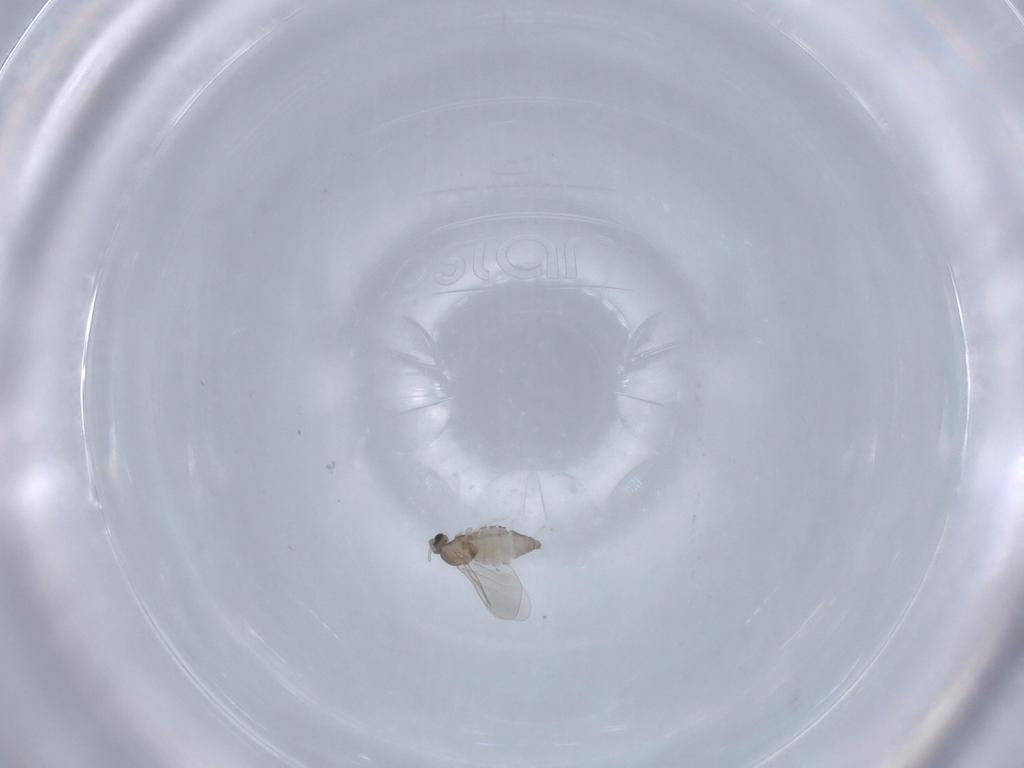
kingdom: Animalia
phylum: Arthropoda
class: Insecta
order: Diptera
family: Cecidomyiidae
